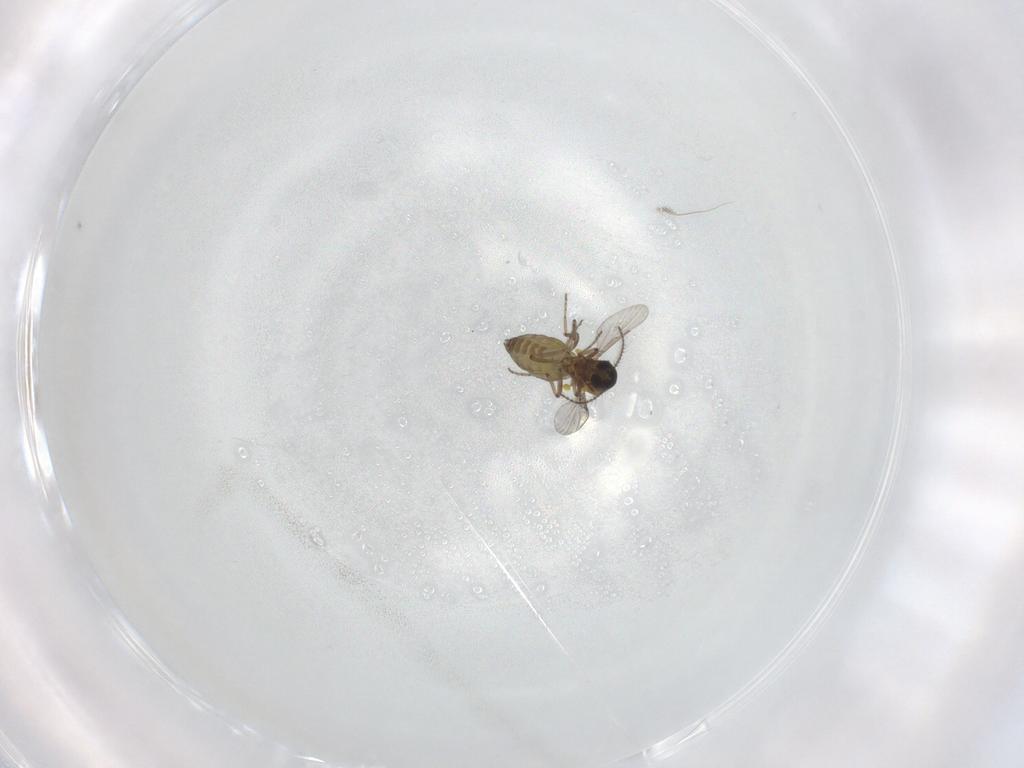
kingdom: Animalia
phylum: Arthropoda
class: Insecta
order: Diptera
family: Phoridae
